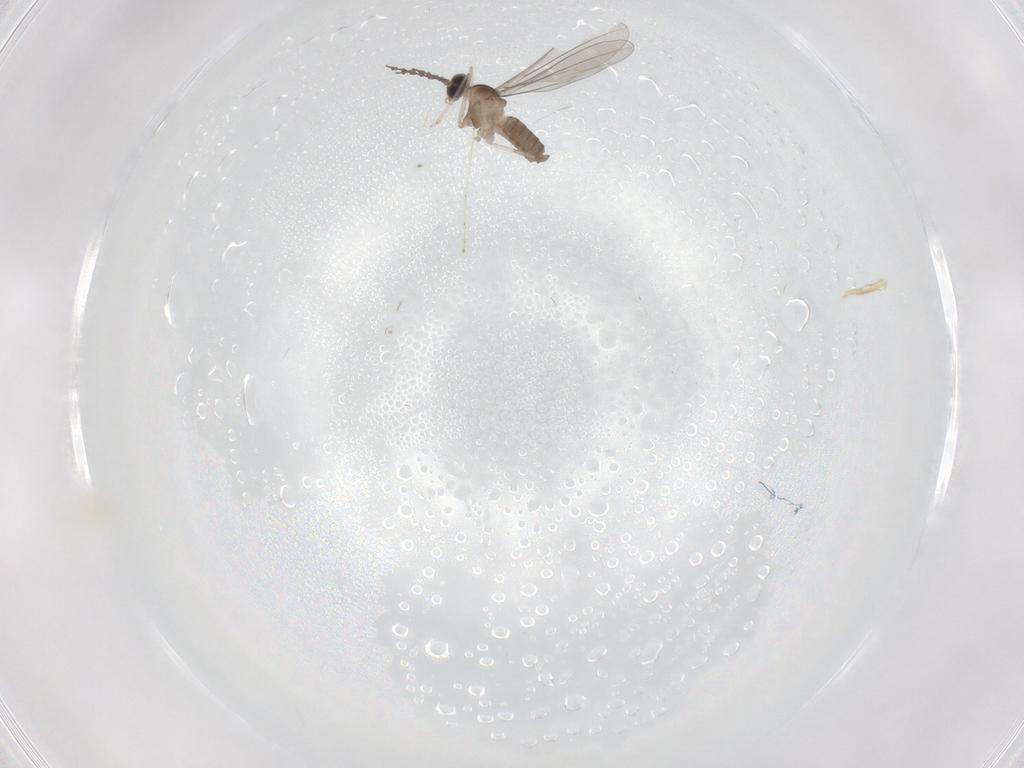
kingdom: Animalia
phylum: Arthropoda
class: Insecta
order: Diptera
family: Cecidomyiidae
